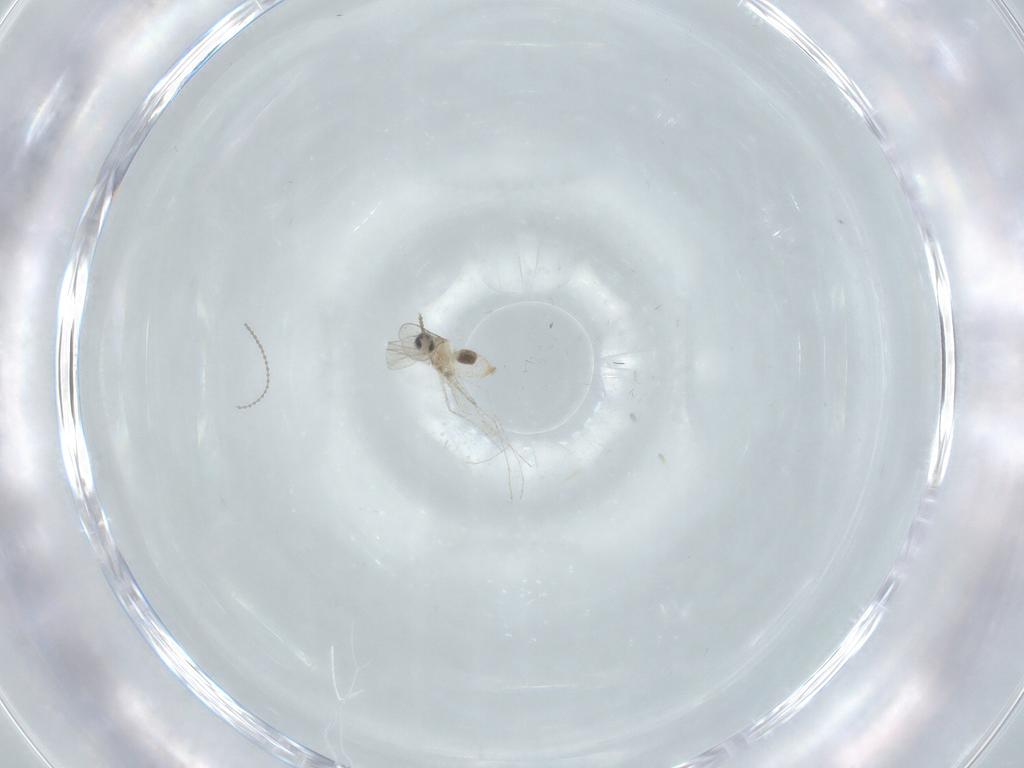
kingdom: Animalia
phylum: Arthropoda
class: Insecta
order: Diptera
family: Cecidomyiidae
